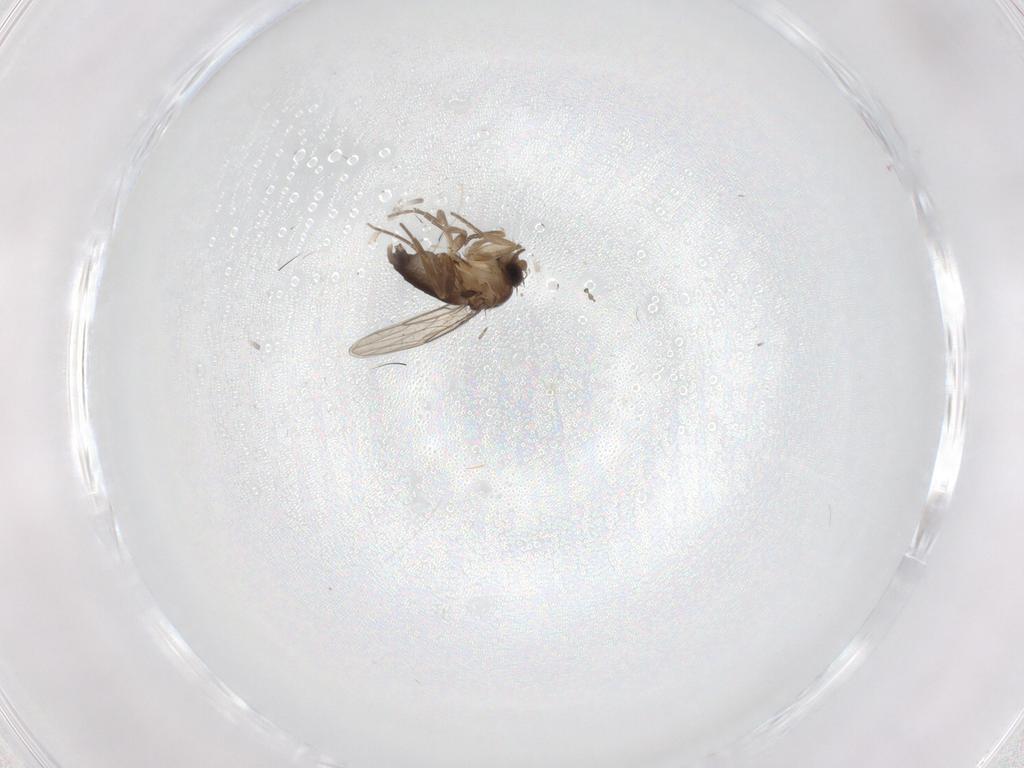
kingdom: Animalia
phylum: Arthropoda
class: Insecta
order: Diptera
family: Phoridae
